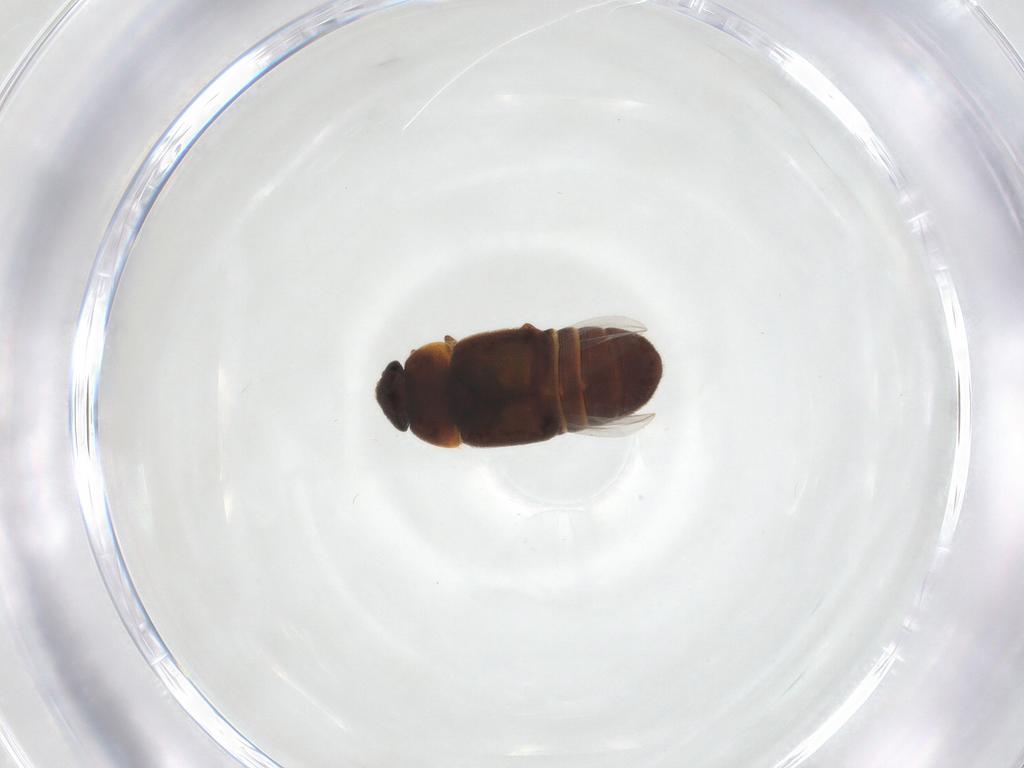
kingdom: Animalia
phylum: Arthropoda
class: Insecta
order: Coleoptera
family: Nitidulidae
